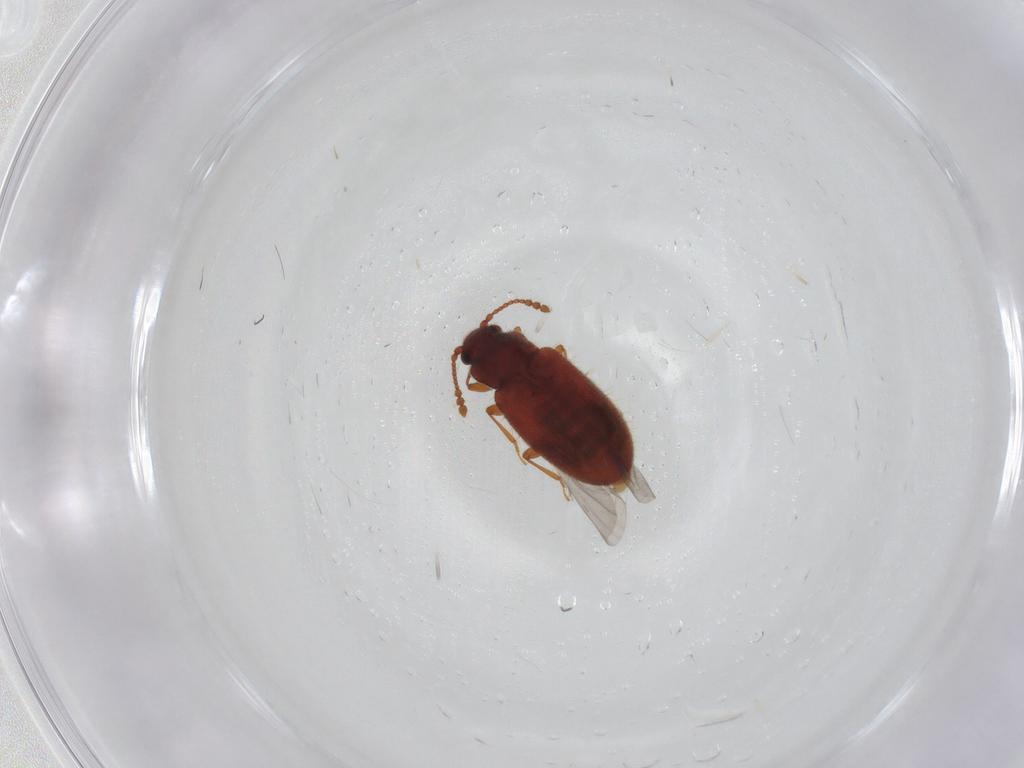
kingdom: Animalia
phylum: Arthropoda
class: Insecta
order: Coleoptera
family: Cryptophagidae
